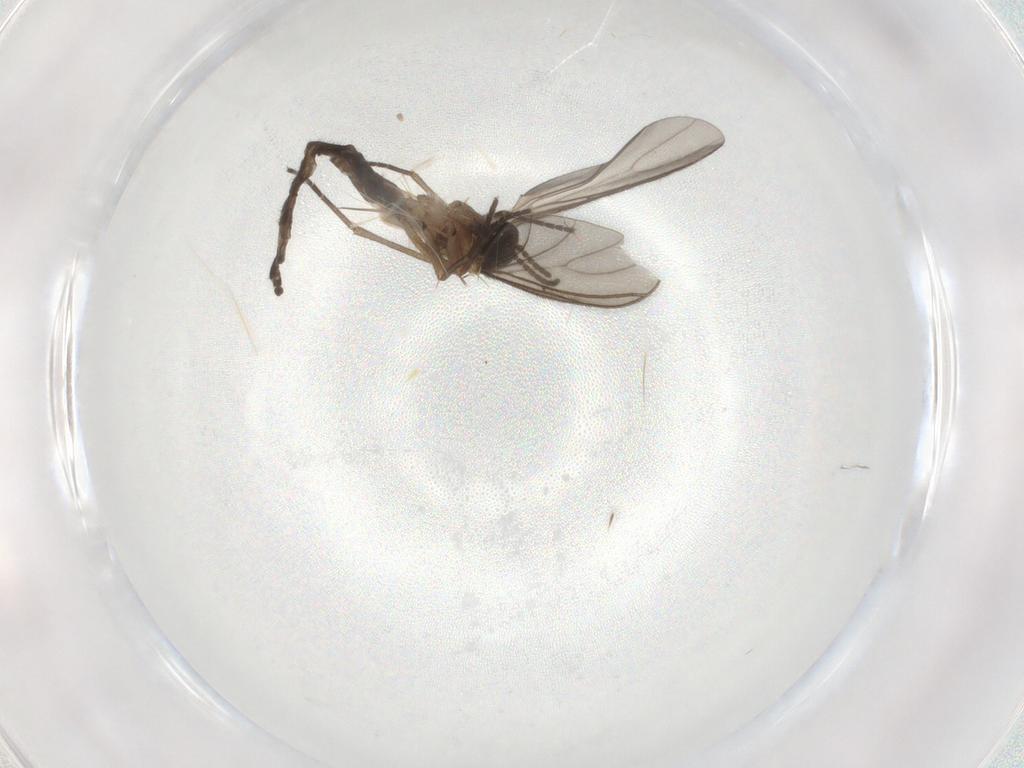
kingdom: Animalia
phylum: Arthropoda
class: Insecta
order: Diptera
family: Sciaridae
